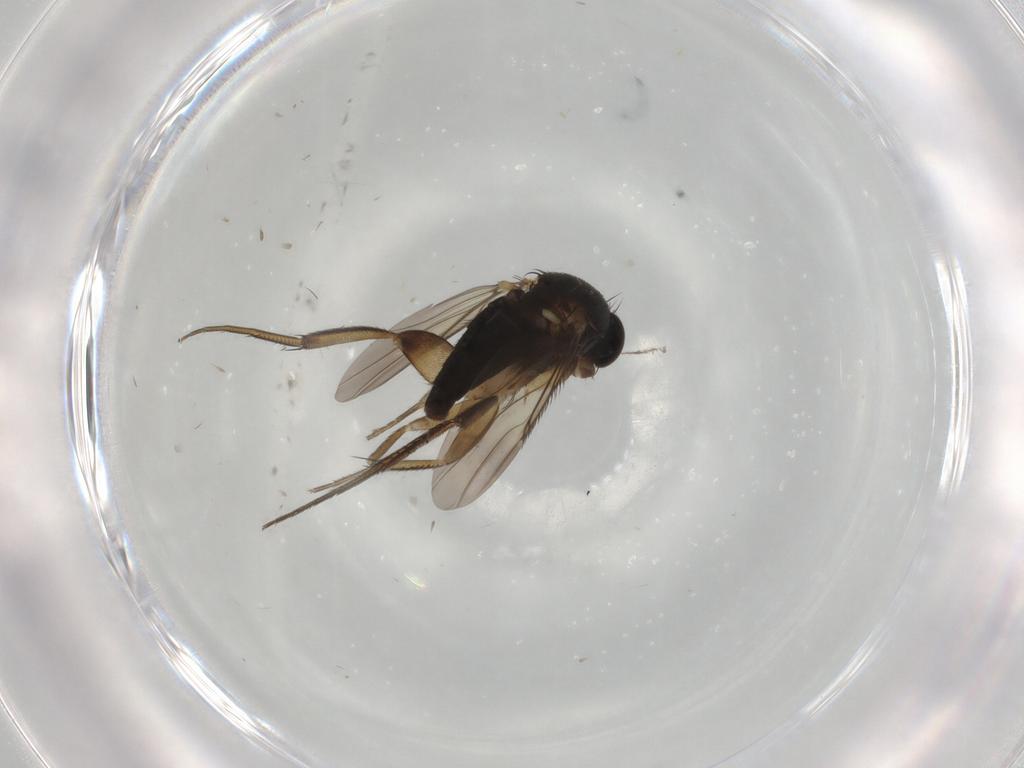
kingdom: Animalia
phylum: Arthropoda
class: Insecta
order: Diptera
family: Phoridae
